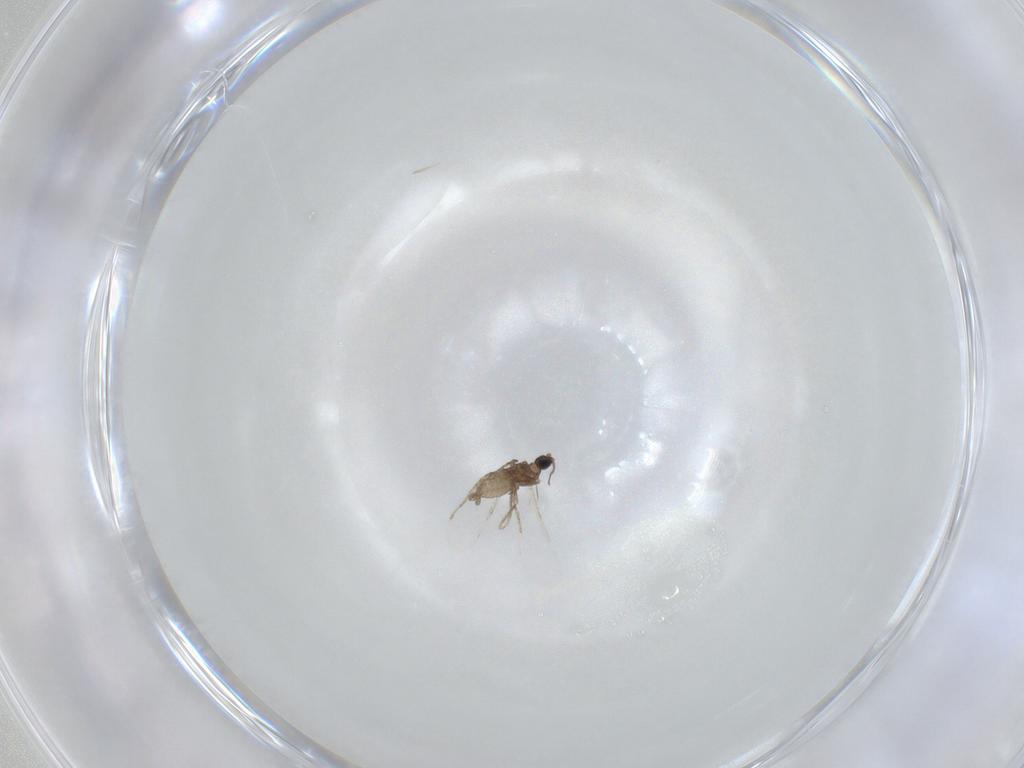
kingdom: Animalia
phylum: Arthropoda
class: Insecta
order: Diptera
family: Cecidomyiidae
